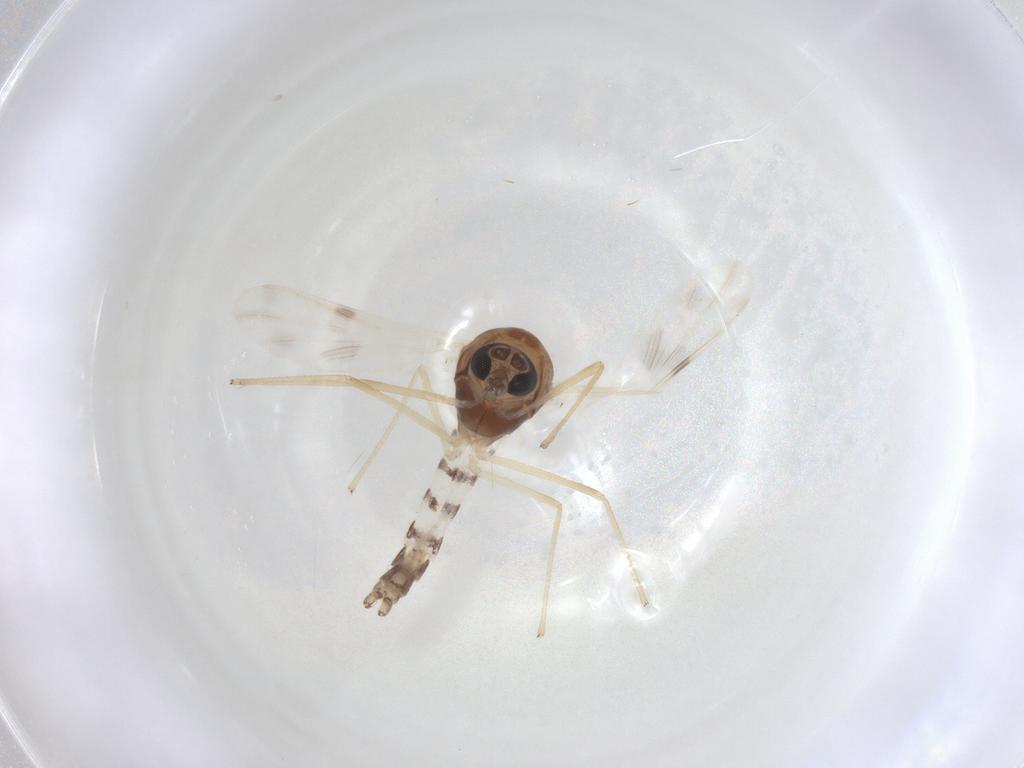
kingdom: Animalia
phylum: Arthropoda
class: Insecta
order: Diptera
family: Chironomidae
